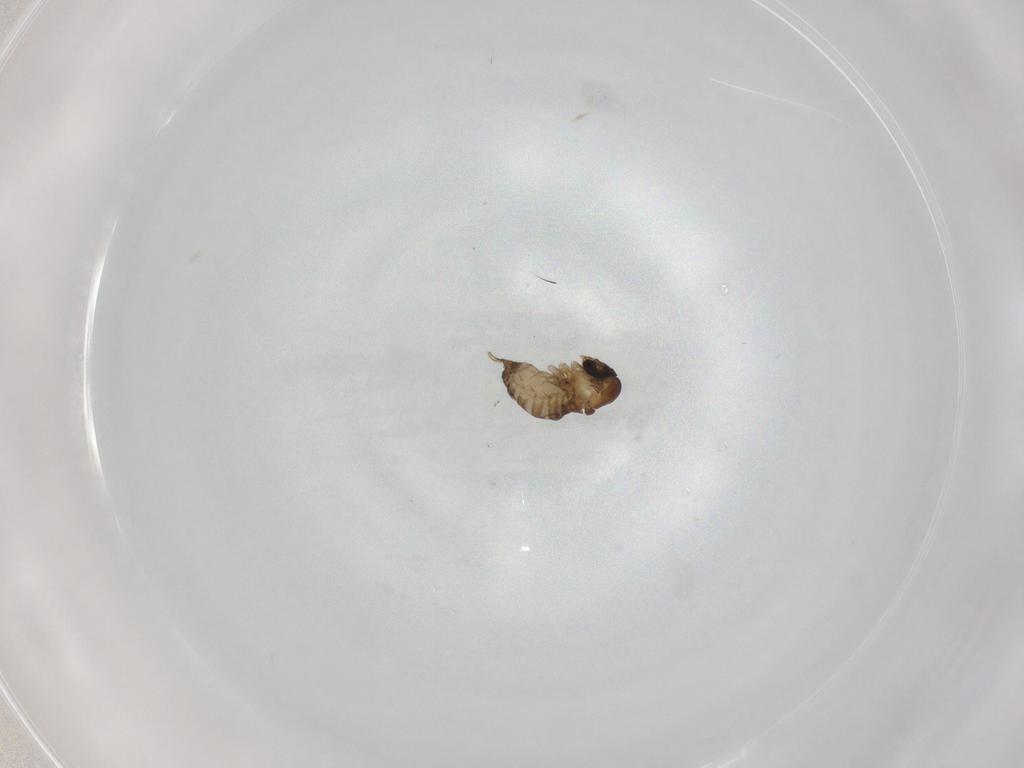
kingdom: Animalia
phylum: Arthropoda
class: Insecta
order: Diptera
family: Psychodidae
